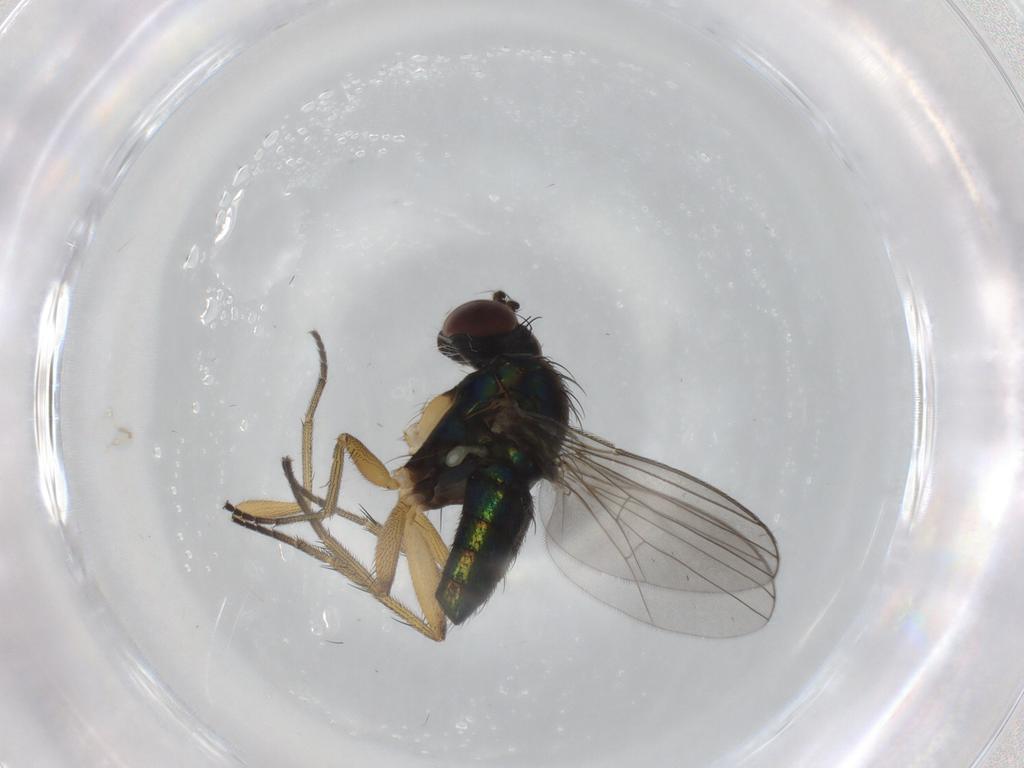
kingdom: Animalia
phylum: Arthropoda
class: Insecta
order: Diptera
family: Dolichopodidae
